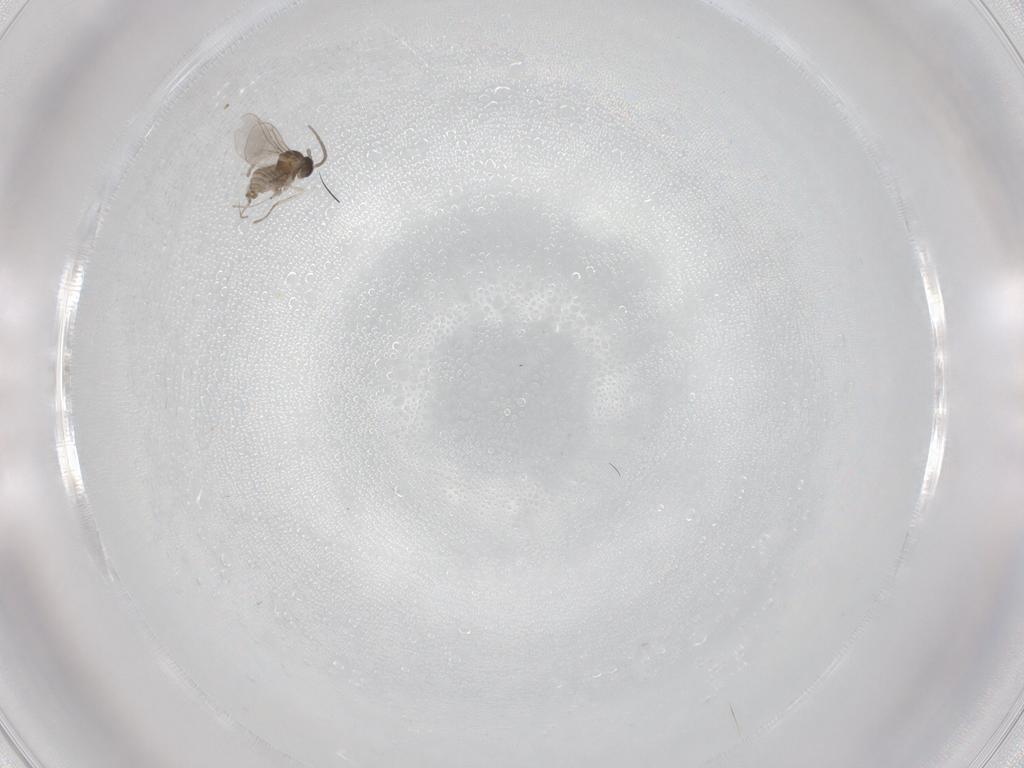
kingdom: Animalia
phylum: Arthropoda
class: Insecta
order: Diptera
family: Cecidomyiidae
